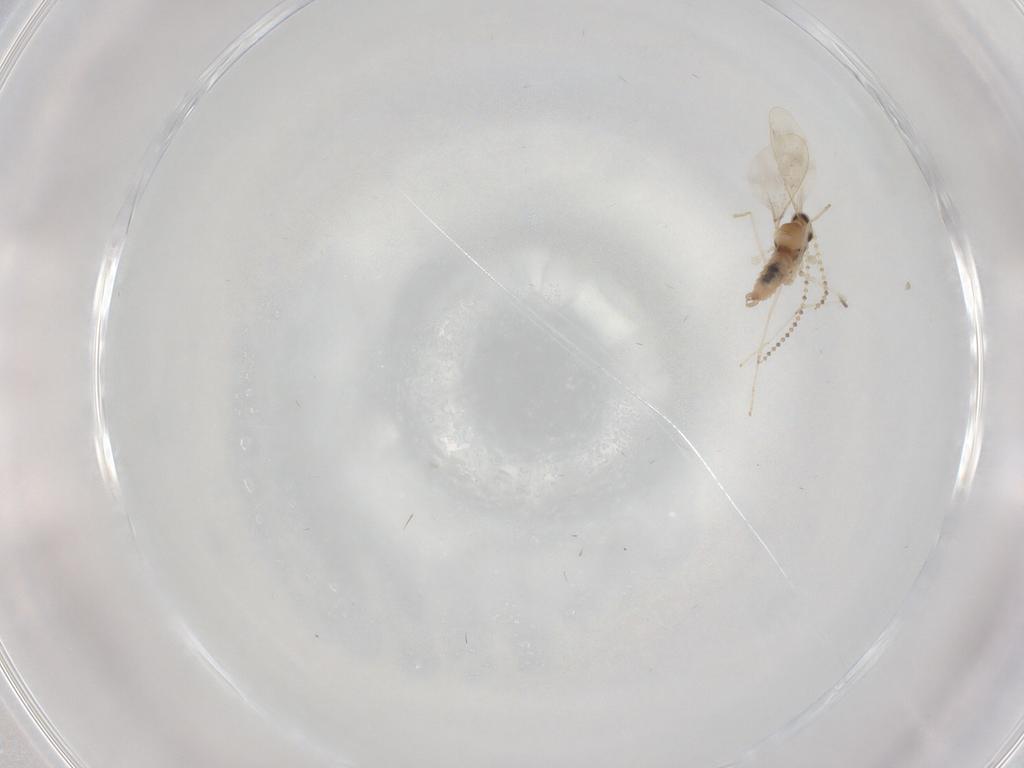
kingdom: Animalia
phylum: Arthropoda
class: Insecta
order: Diptera
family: Cecidomyiidae
